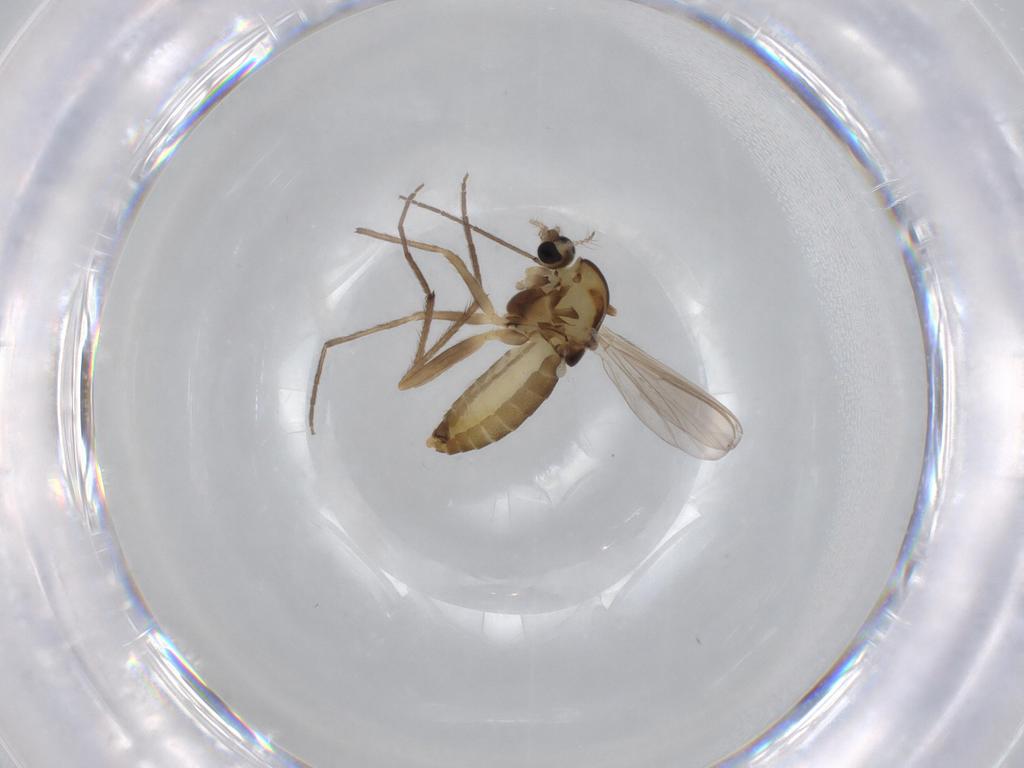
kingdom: Animalia
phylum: Arthropoda
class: Insecta
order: Diptera
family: Chironomidae
